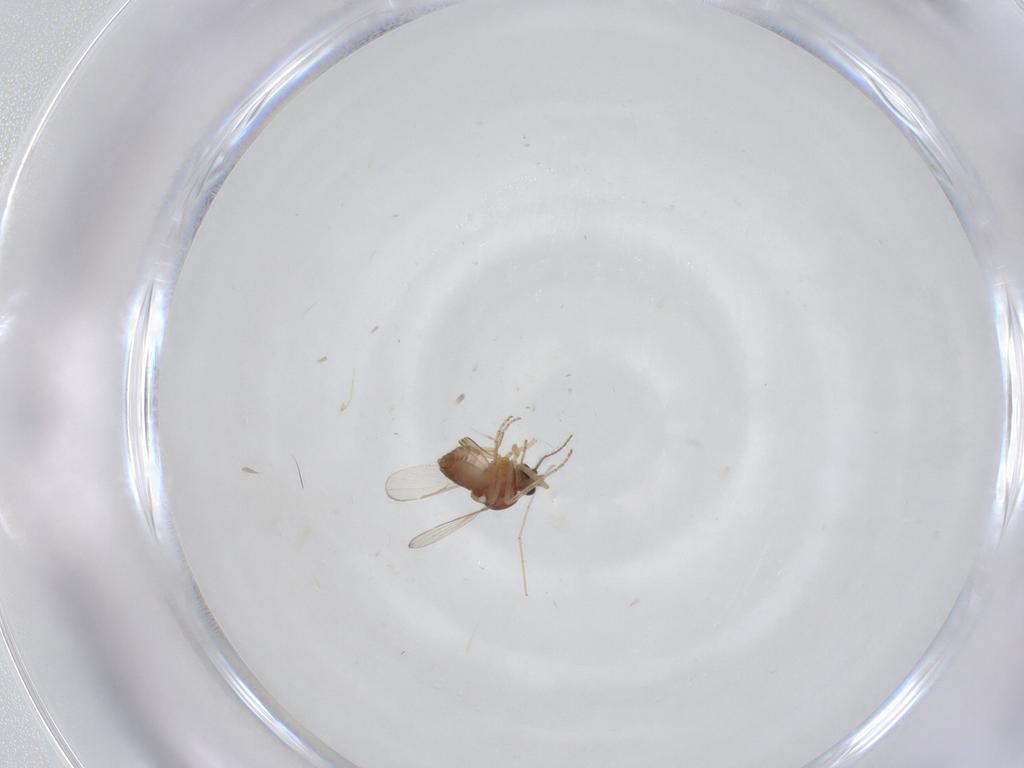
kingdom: Animalia
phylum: Arthropoda
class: Insecta
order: Diptera
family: Ceratopogonidae
